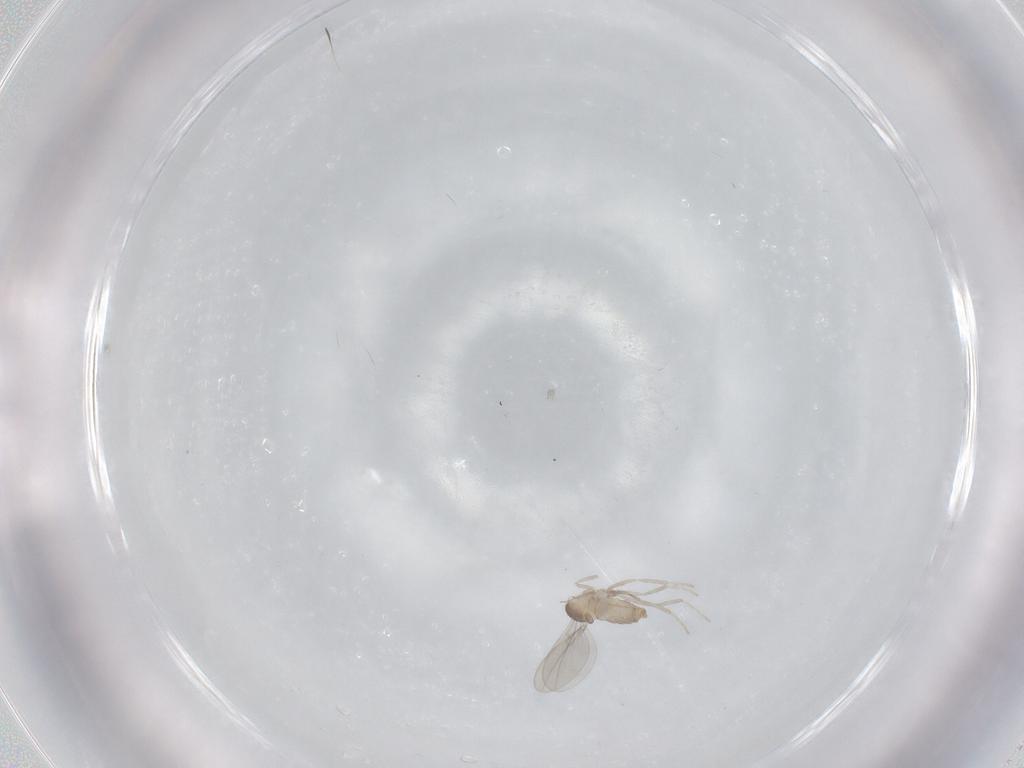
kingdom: Animalia
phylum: Arthropoda
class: Insecta
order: Diptera
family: Cecidomyiidae
